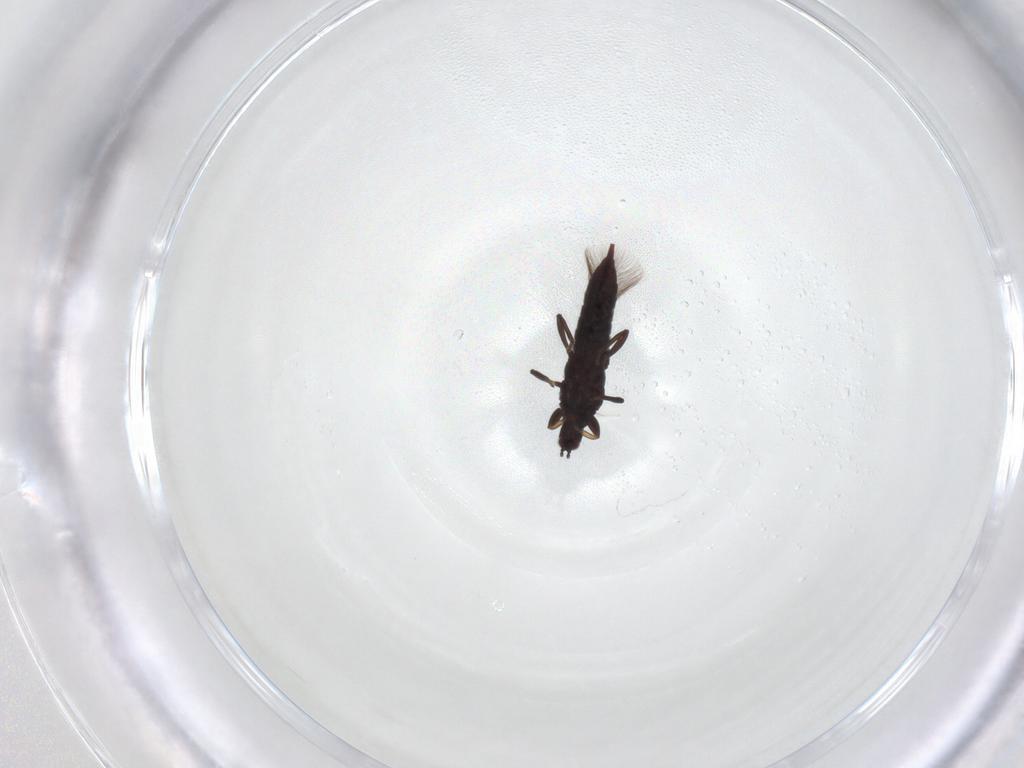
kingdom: Animalia
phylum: Arthropoda
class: Insecta
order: Thysanoptera
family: Phlaeothripidae
